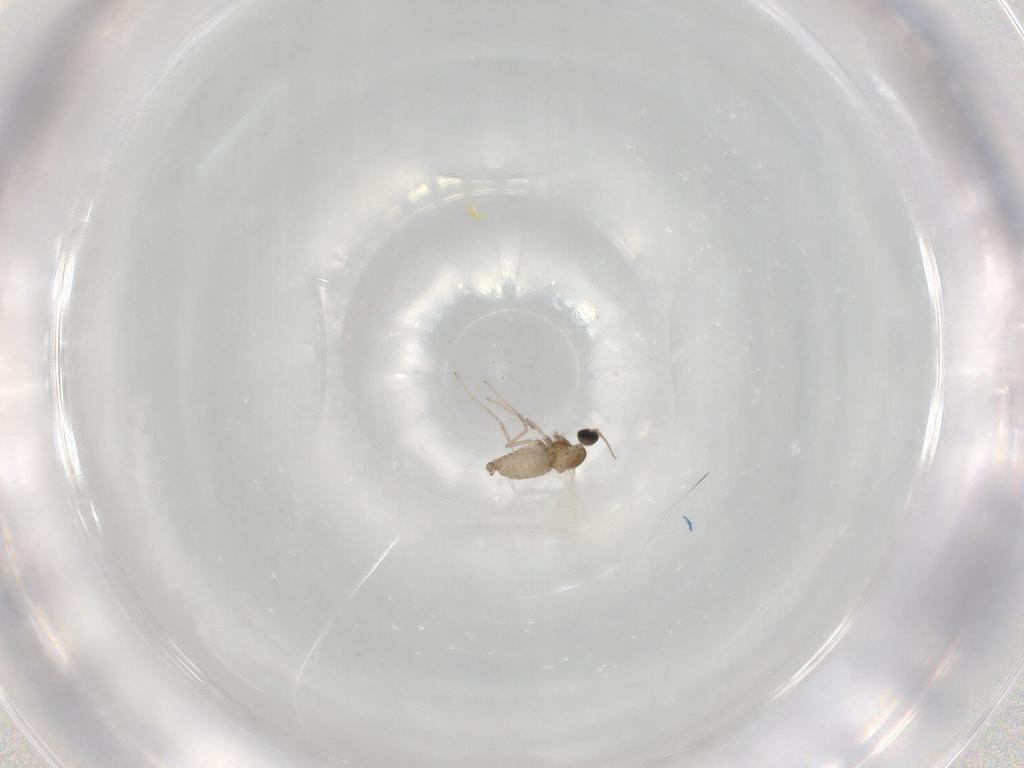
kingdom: Animalia
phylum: Arthropoda
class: Insecta
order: Diptera
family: Cecidomyiidae
